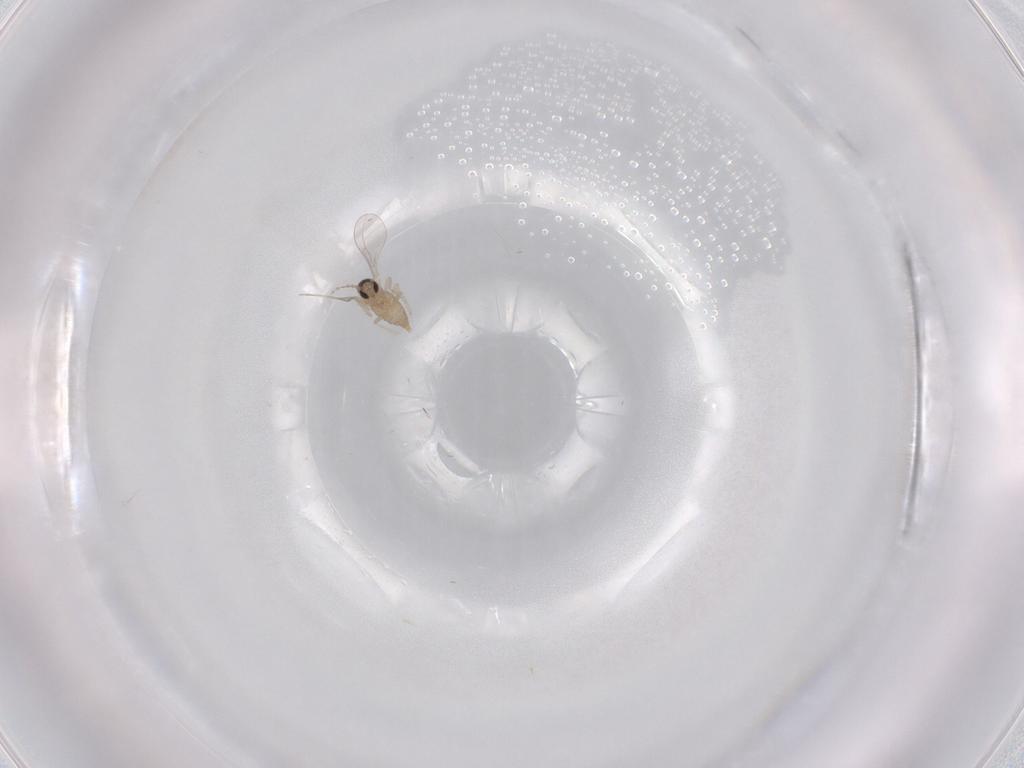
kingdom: Animalia
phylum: Arthropoda
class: Insecta
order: Diptera
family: Cecidomyiidae
